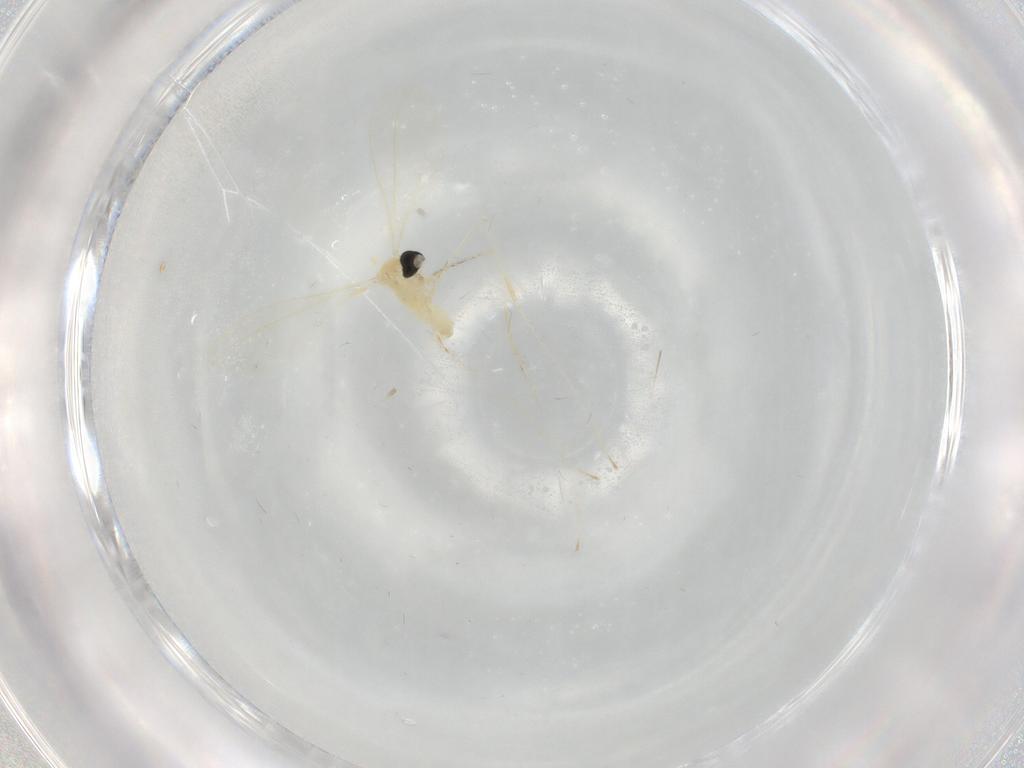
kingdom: Animalia
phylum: Arthropoda
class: Insecta
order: Diptera
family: Cecidomyiidae
